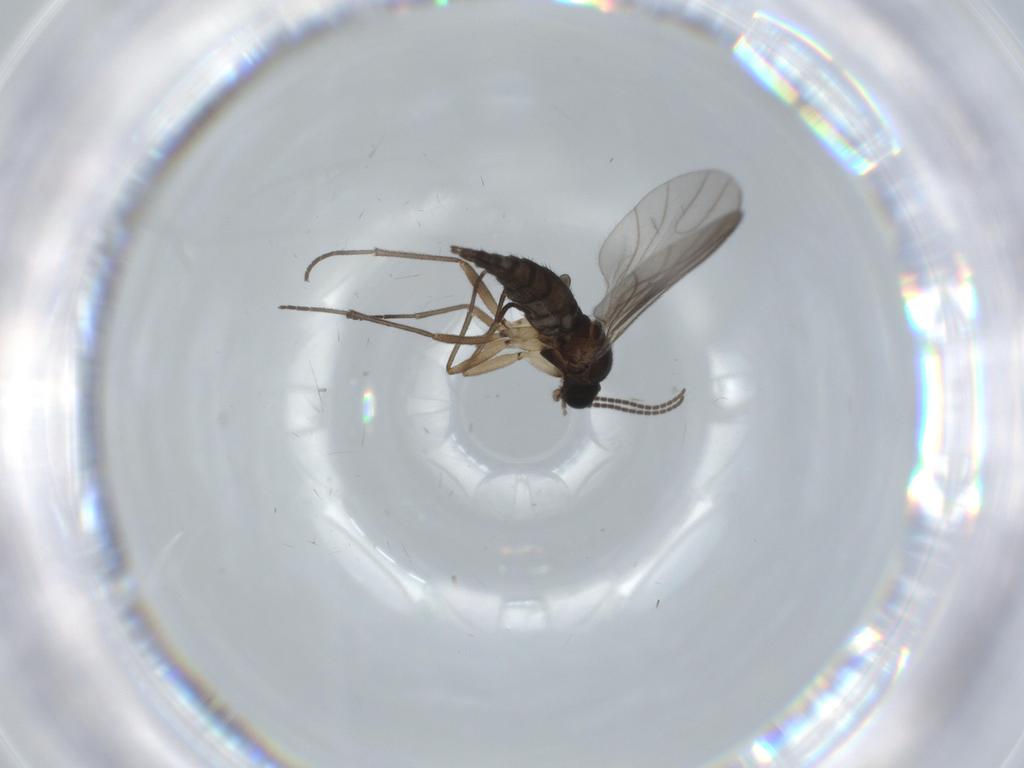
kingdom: Animalia
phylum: Arthropoda
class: Insecta
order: Diptera
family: Sciaridae
